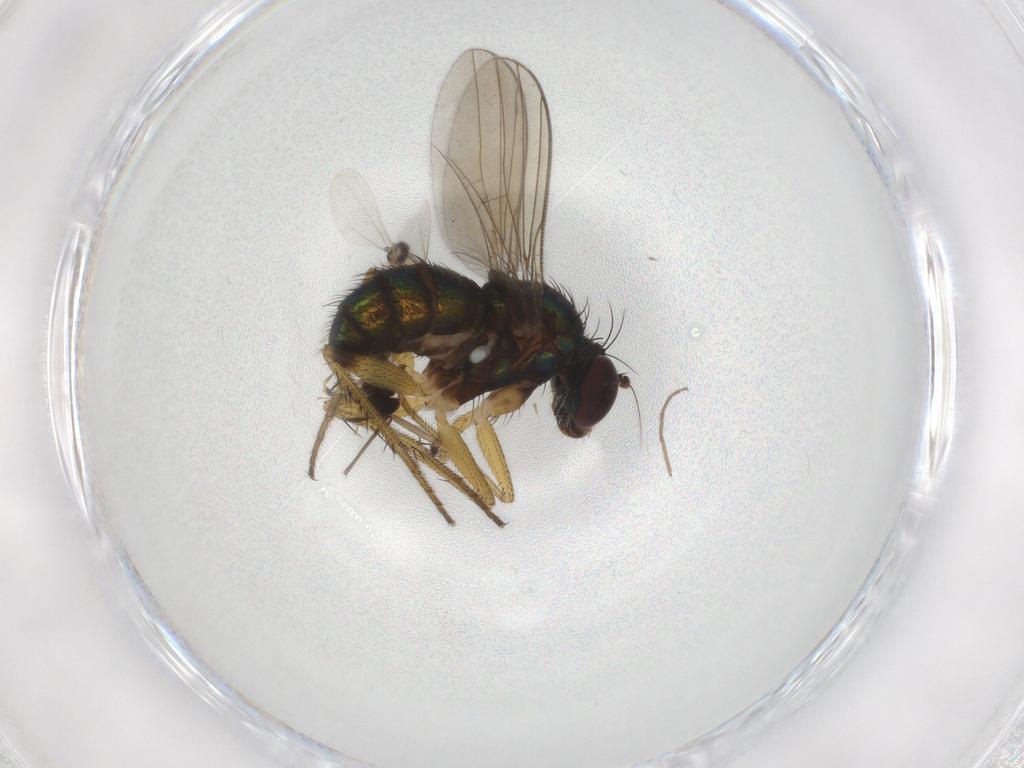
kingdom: Animalia
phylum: Arthropoda
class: Insecta
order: Diptera
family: Dolichopodidae
